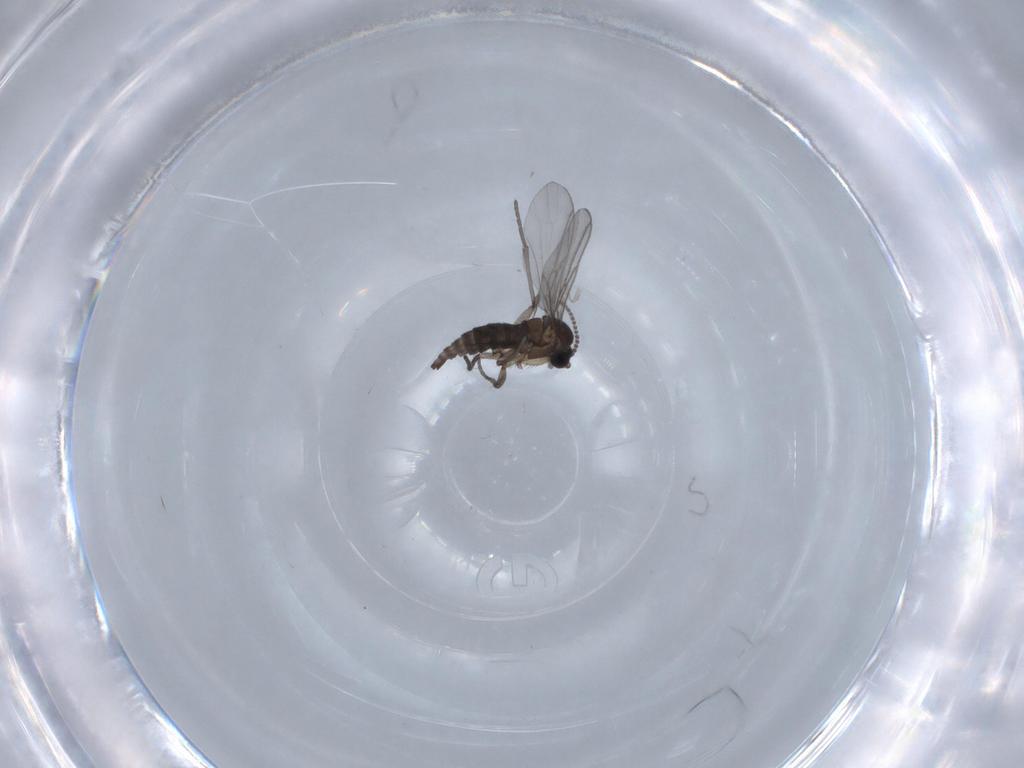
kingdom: Animalia
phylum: Arthropoda
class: Insecta
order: Diptera
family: Cecidomyiidae
